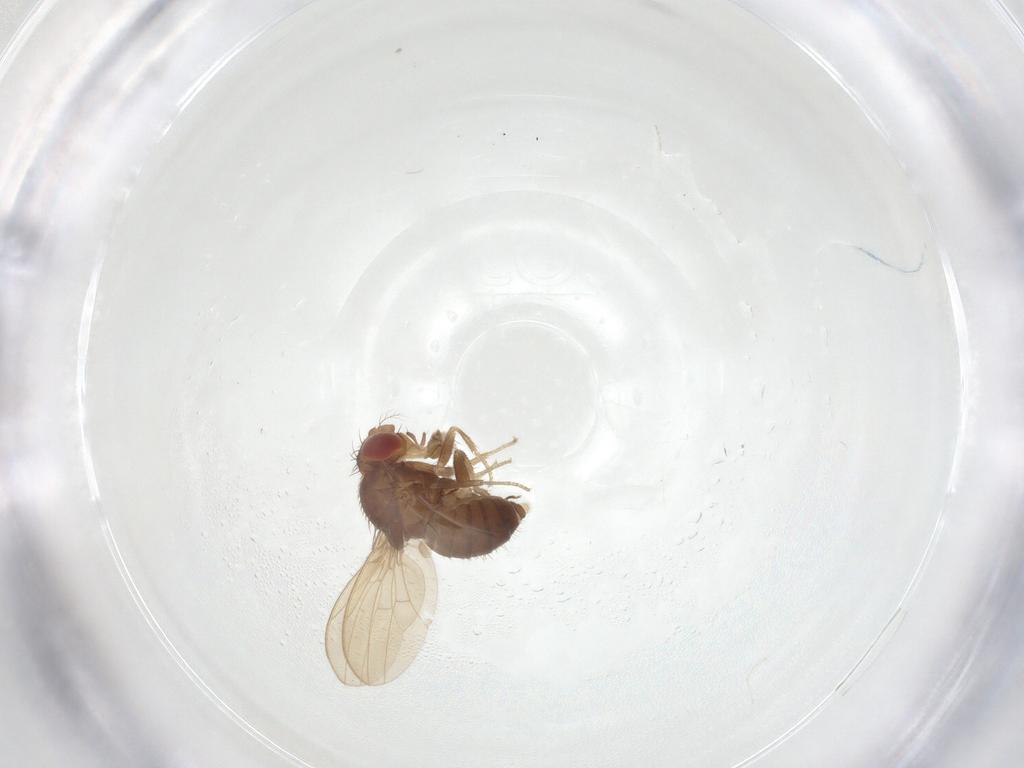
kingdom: Animalia
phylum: Arthropoda
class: Insecta
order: Diptera
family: Drosophilidae
